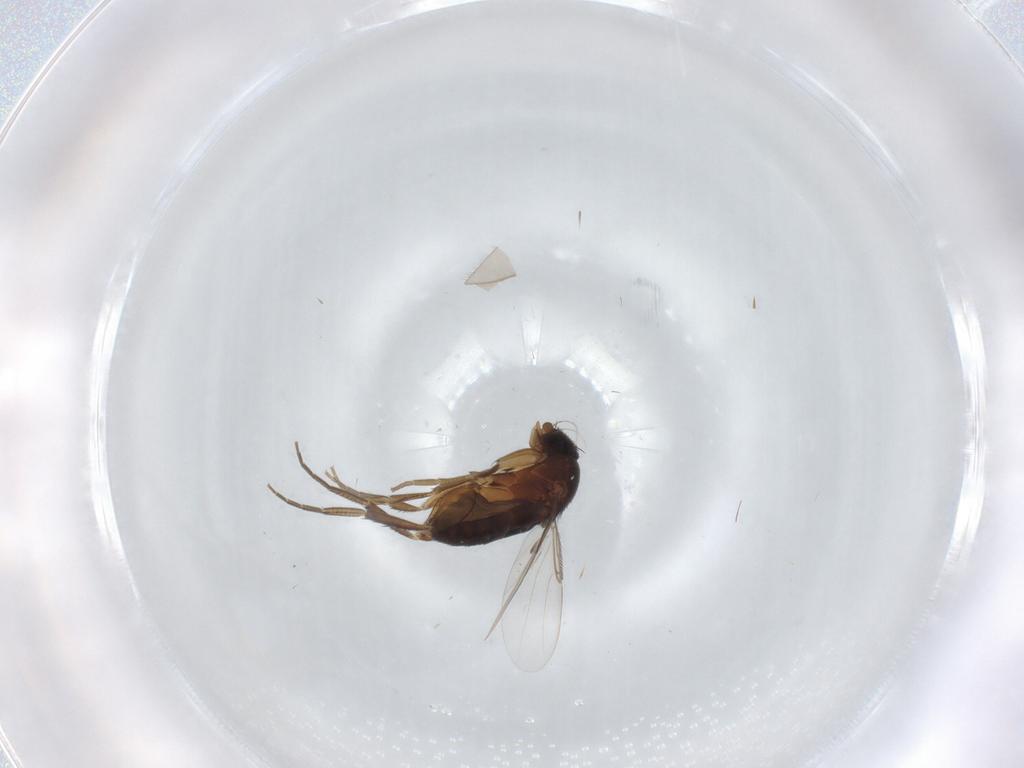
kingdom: Animalia
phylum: Arthropoda
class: Insecta
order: Diptera
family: Phoridae
